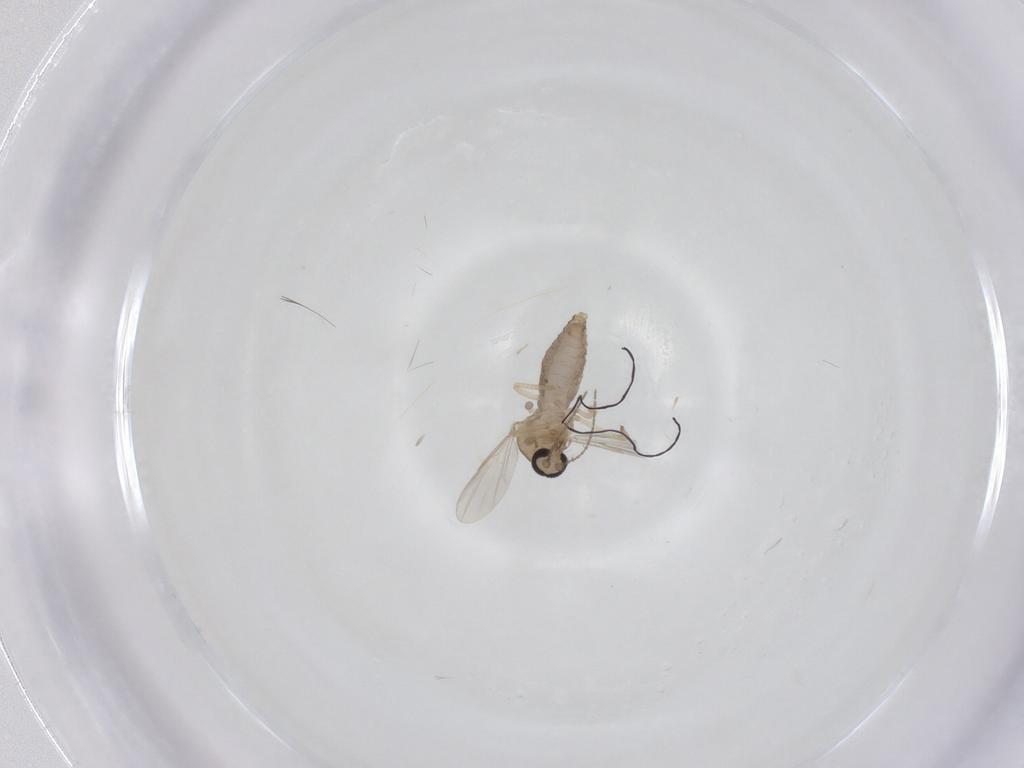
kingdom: Animalia
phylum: Arthropoda
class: Insecta
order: Diptera
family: Ceratopogonidae
